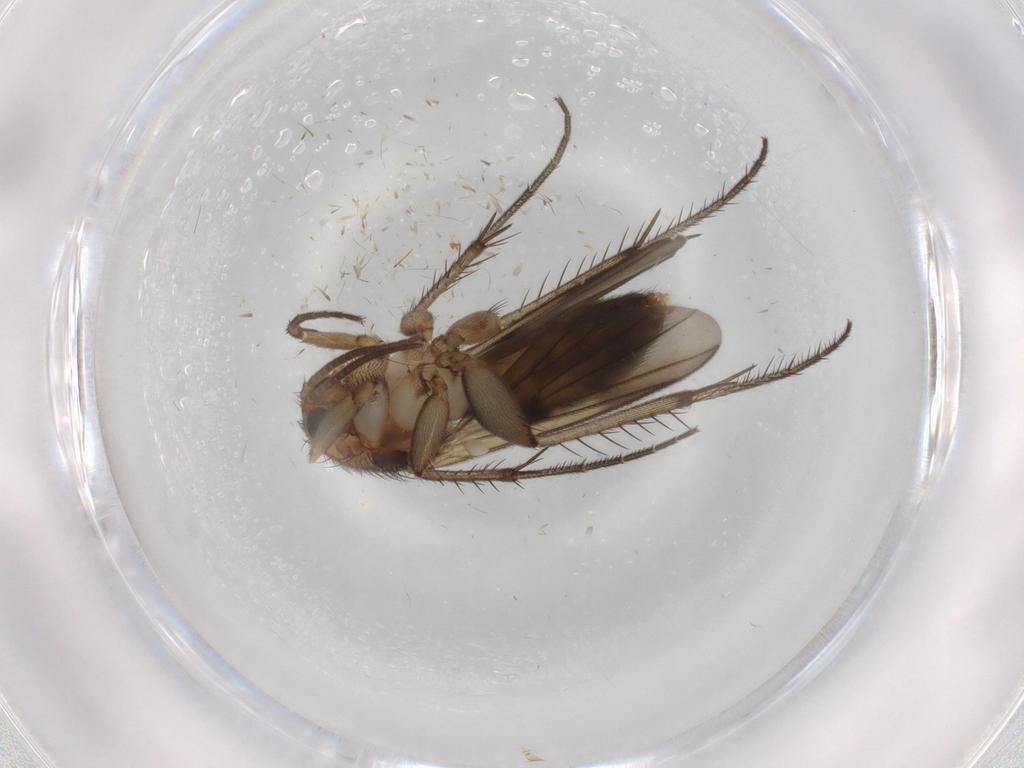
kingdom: Animalia
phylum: Arthropoda
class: Insecta
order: Diptera
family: Cecidomyiidae
